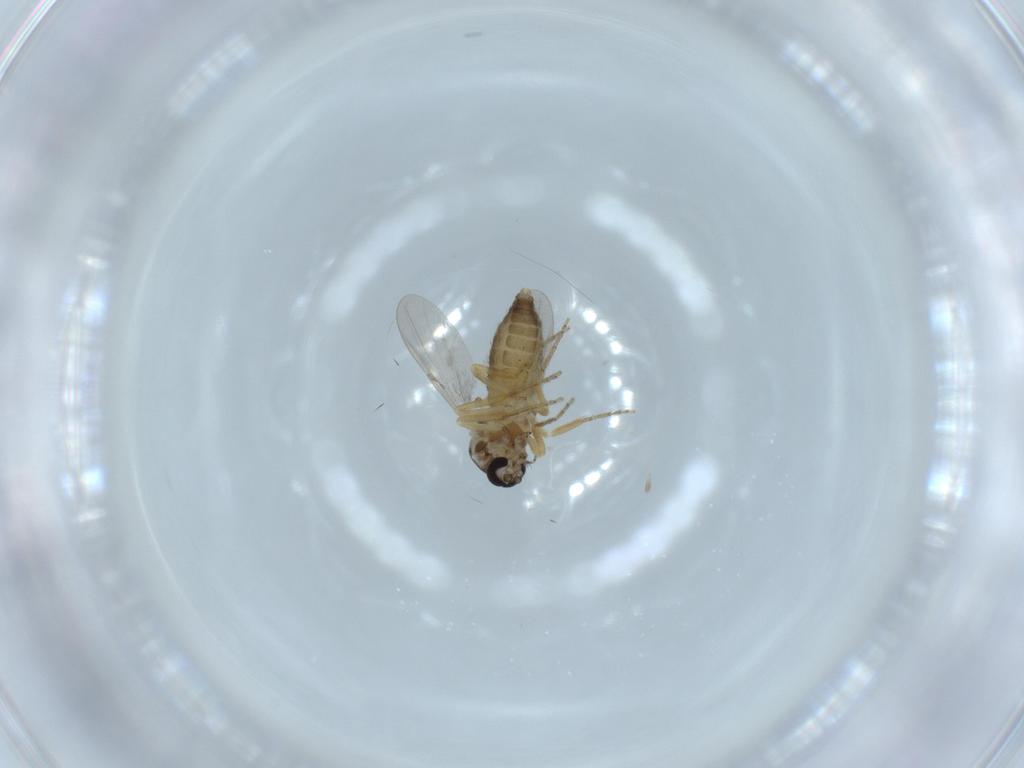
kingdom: Animalia
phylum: Arthropoda
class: Insecta
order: Diptera
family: Ceratopogonidae
